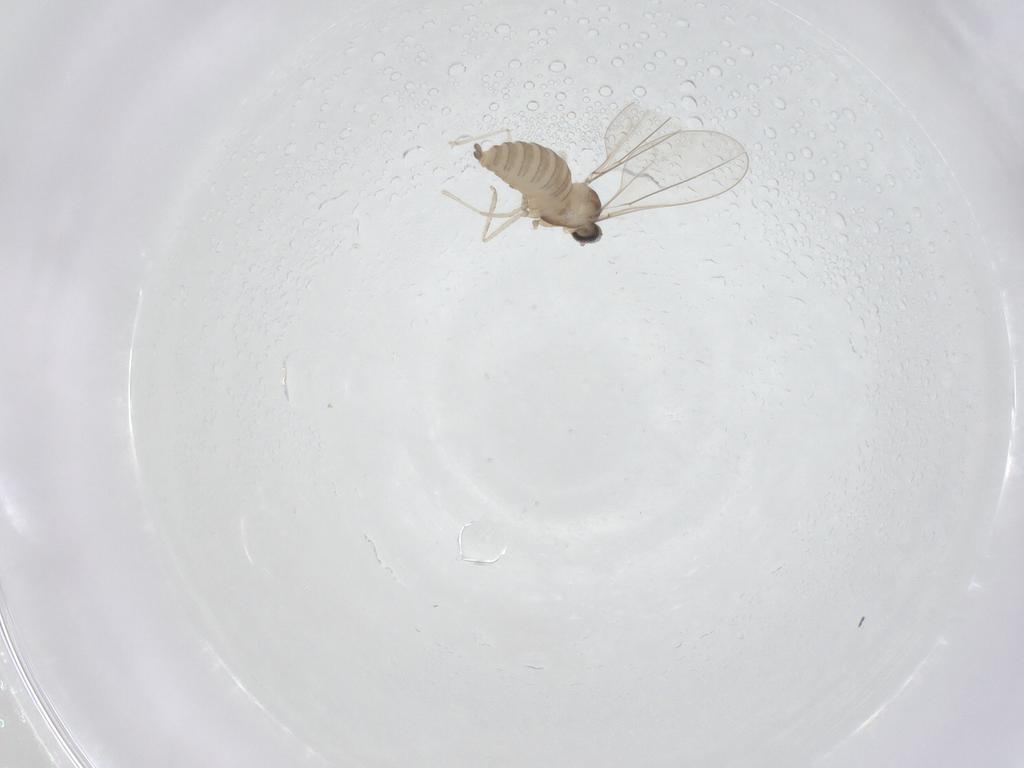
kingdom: Animalia
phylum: Arthropoda
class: Insecta
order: Diptera
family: Cecidomyiidae
